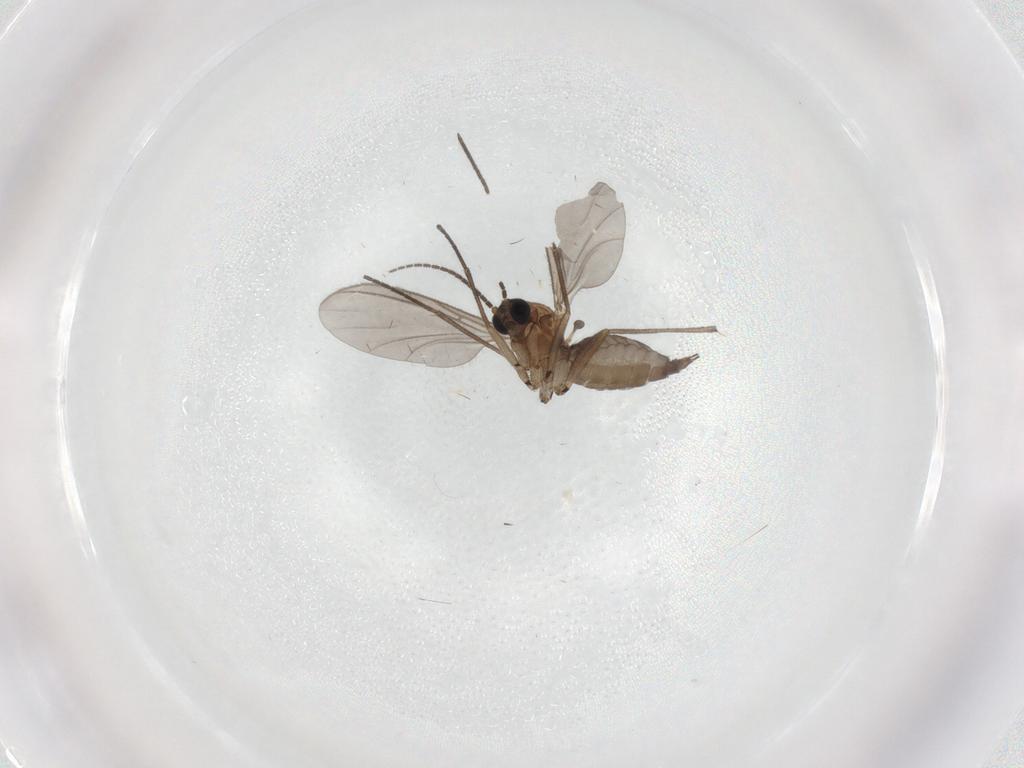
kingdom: Animalia
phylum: Arthropoda
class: Insecta
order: Diptera
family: Sciaridae
